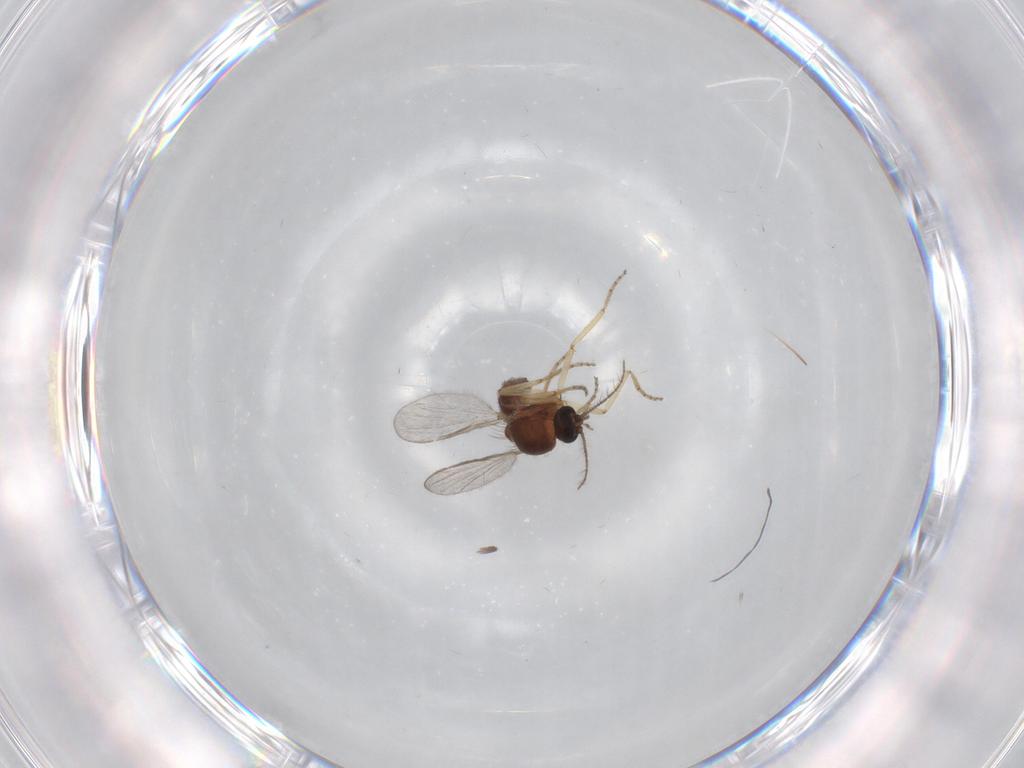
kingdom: Animalia
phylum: Arthropoda
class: Insecta
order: Diptera
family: Ceratopogonidae
